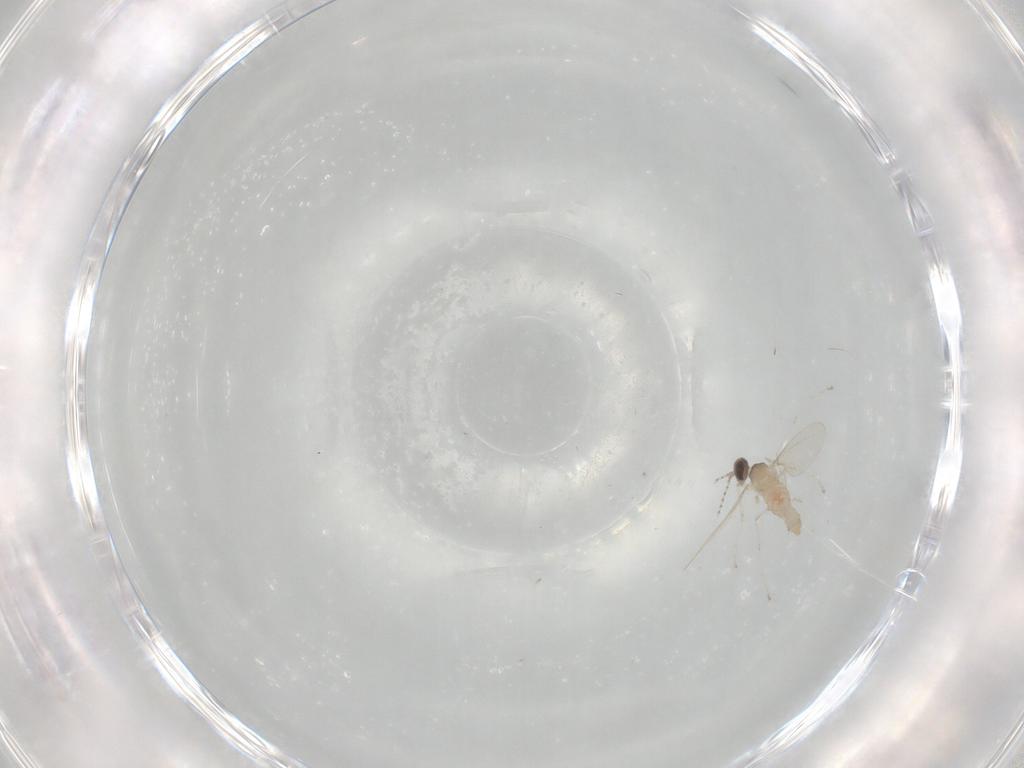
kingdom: Animalia
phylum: Arthropoda
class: Insecta
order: Diptera
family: Cecidomyiidae
